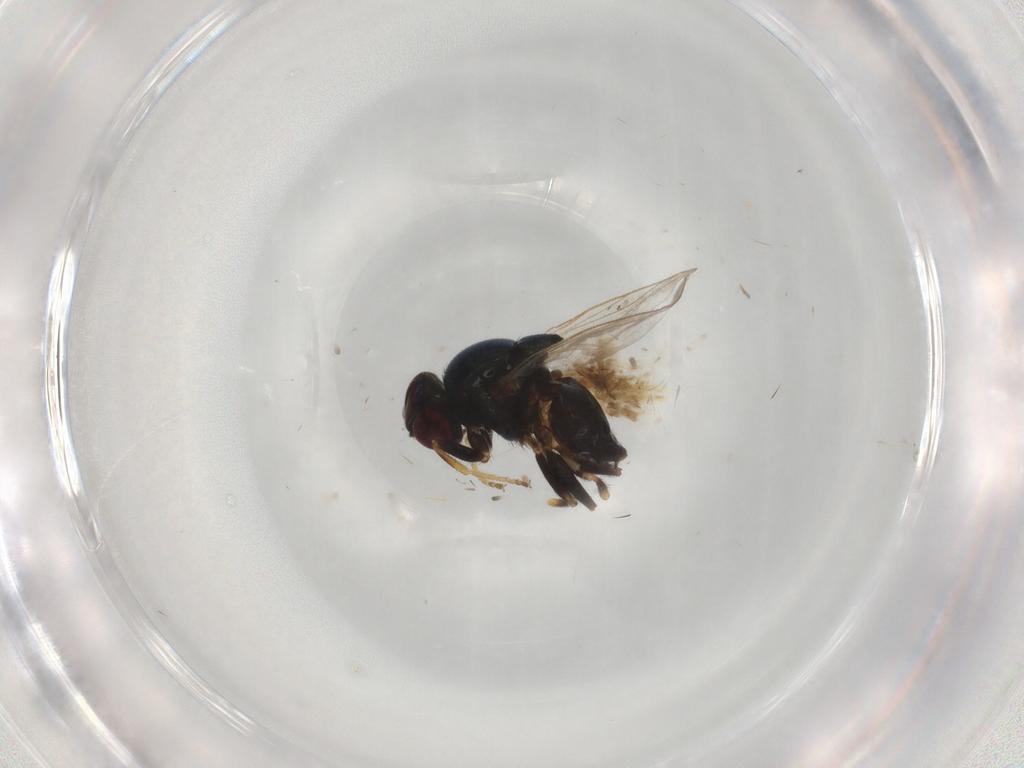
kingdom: Animalia
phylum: Arthropoda
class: Insecta
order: Diptera
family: Chloropidae
